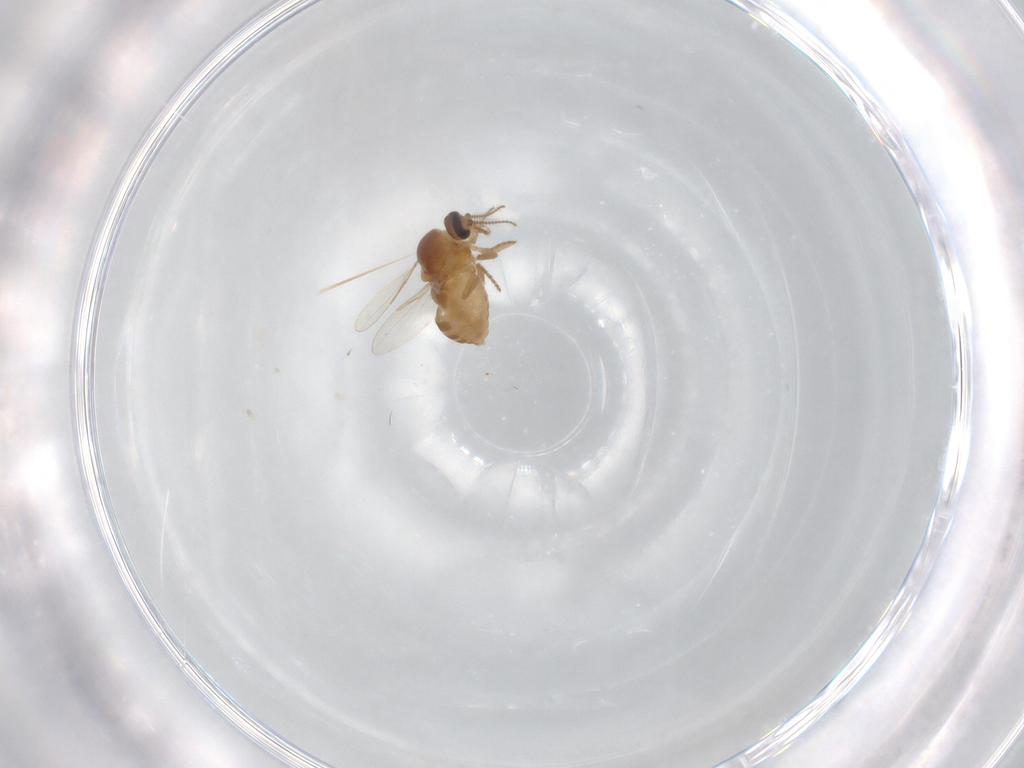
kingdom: Animalia
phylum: Arthropoda
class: Insecta
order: Diptera
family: Ceratopogonidae
